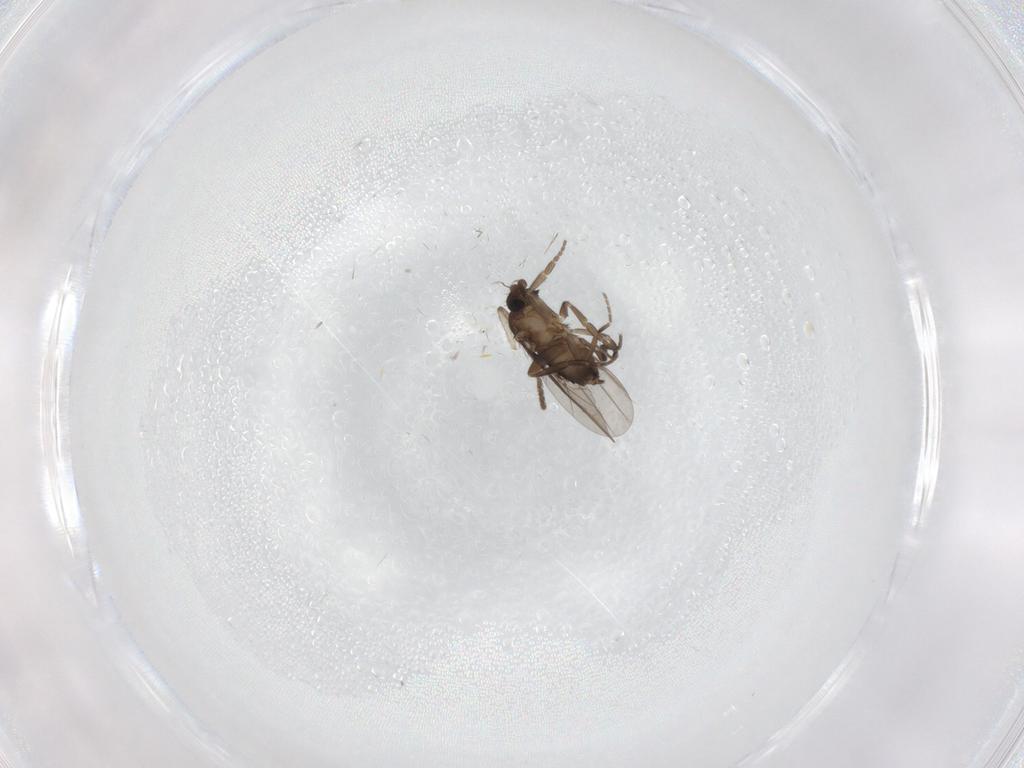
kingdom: Animalia
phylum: Arthropoda
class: Insecta
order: Diptera
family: Phoridae
